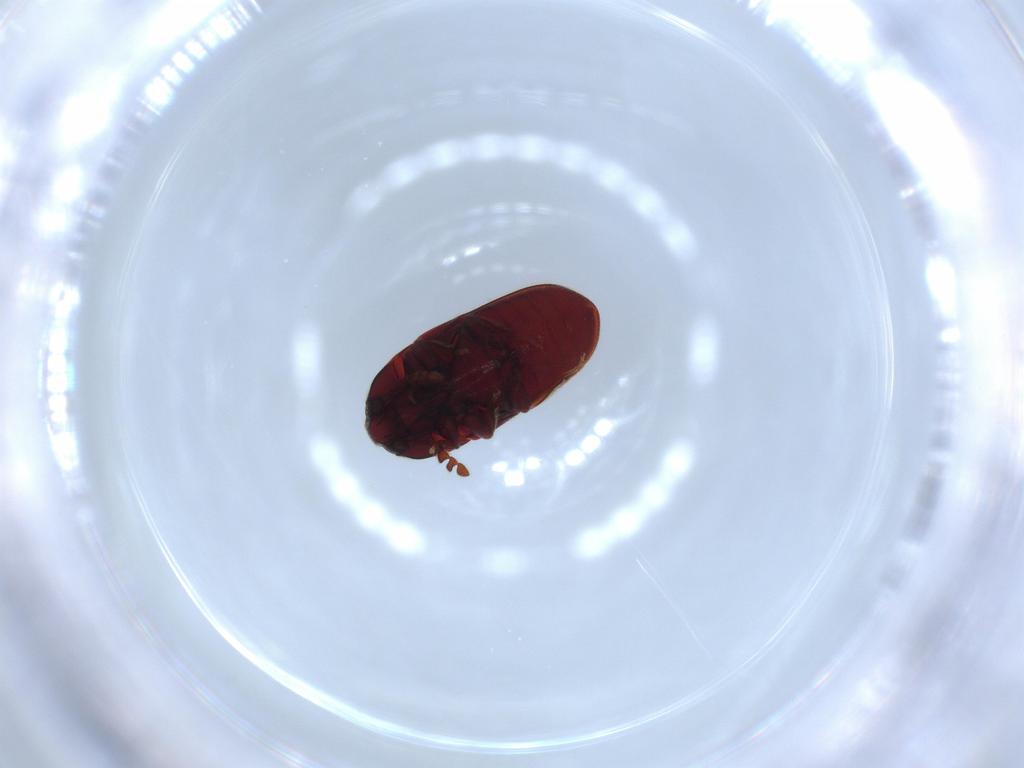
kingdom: Animalia
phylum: Arthropoda
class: Insecta
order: Coleoptera
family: Throscidae
